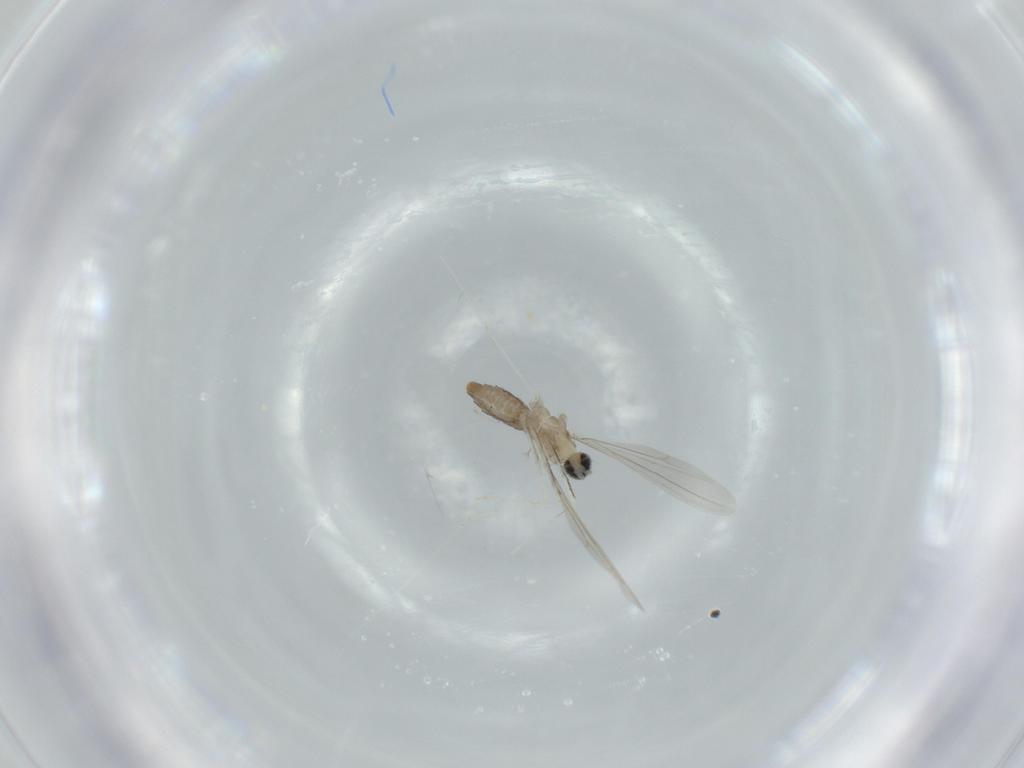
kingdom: Animalia
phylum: Arthropoda
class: Insecta
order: Diptera
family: Cecidomyiidae
